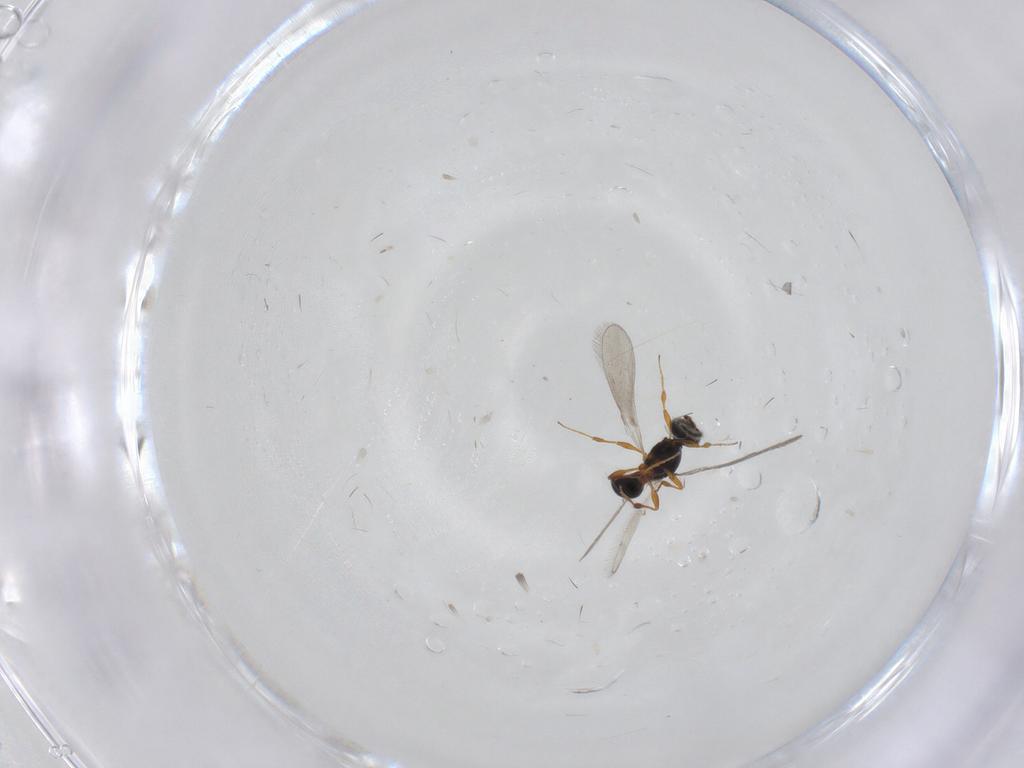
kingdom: Animalia
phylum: Arthropoda
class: Insecta
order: Hymenoptera
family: Platygastridae
